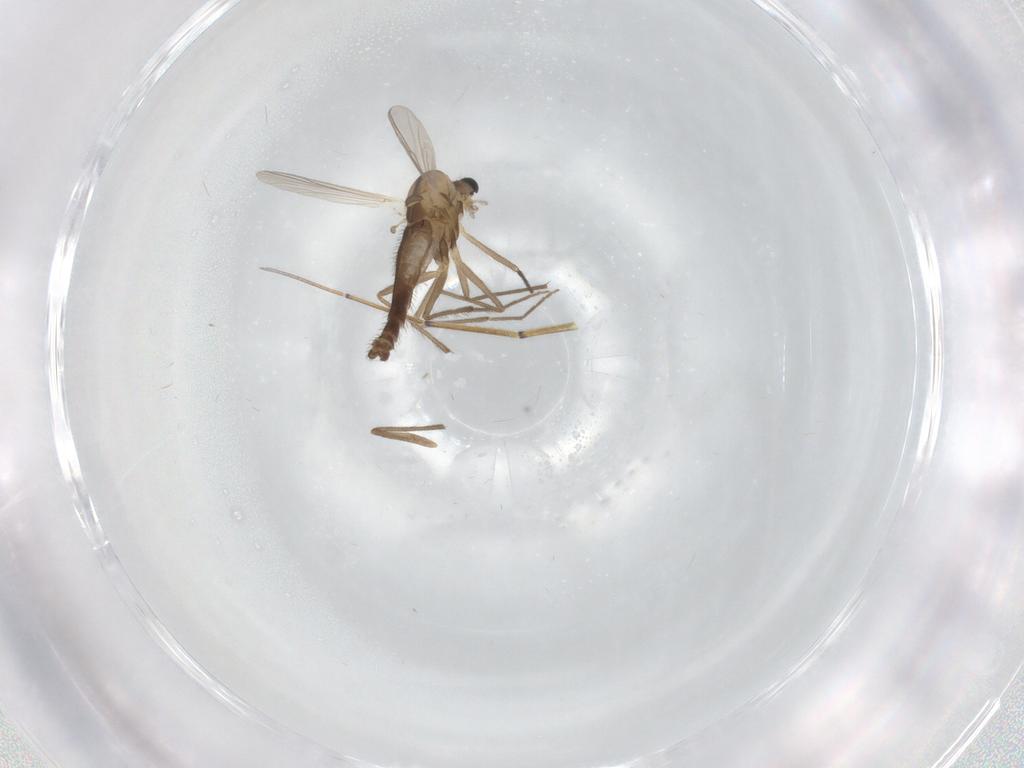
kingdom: Animalia
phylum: Arthropoda
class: Insecta
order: Diptera
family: Chironomidae
